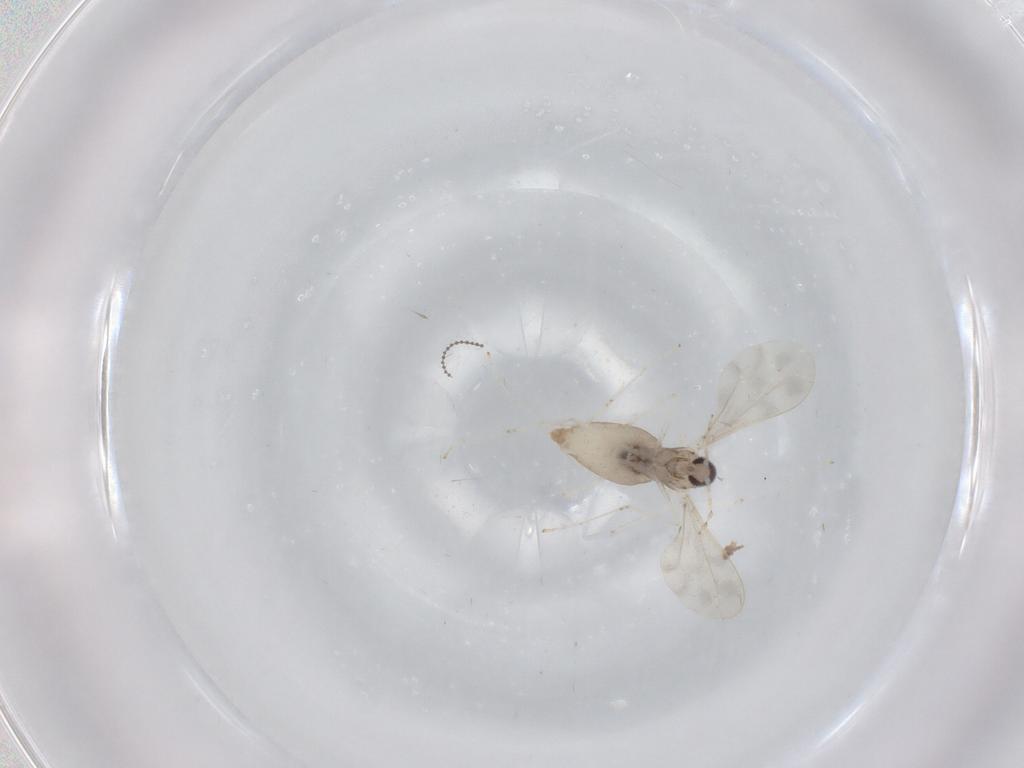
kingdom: Animalia
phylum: Arthropoda
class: Insecta
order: Diptera
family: Cecidomyiidae
